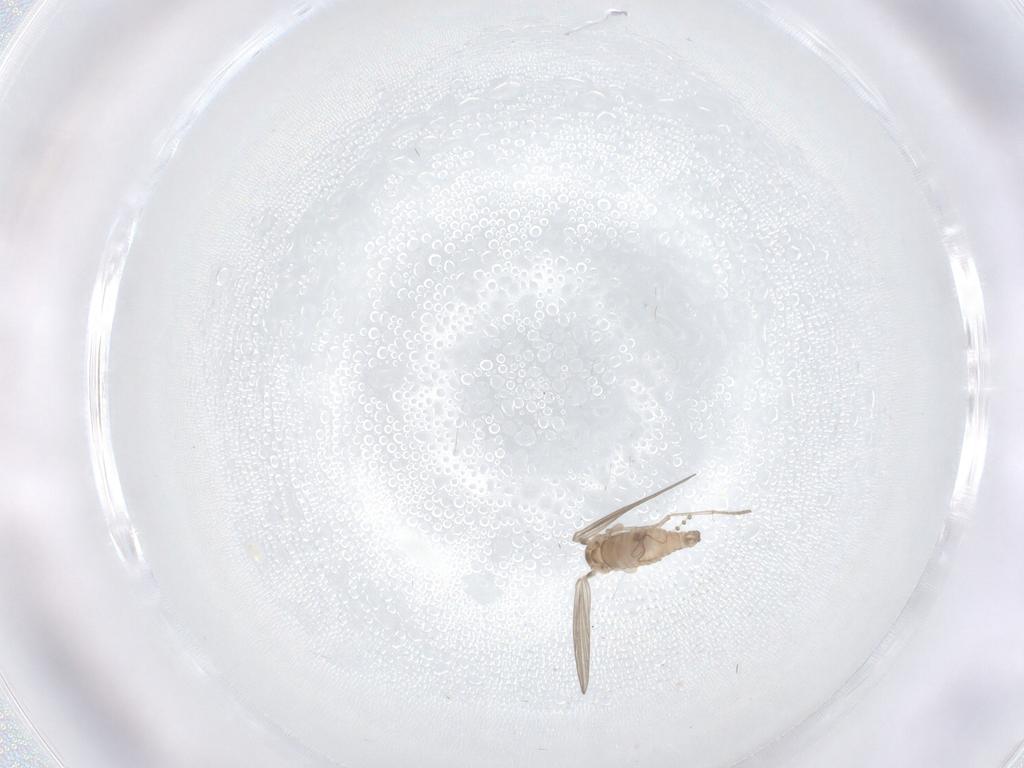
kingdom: Animalia
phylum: Arthropoda
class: Insecta
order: Diptera
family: Psychodidae
